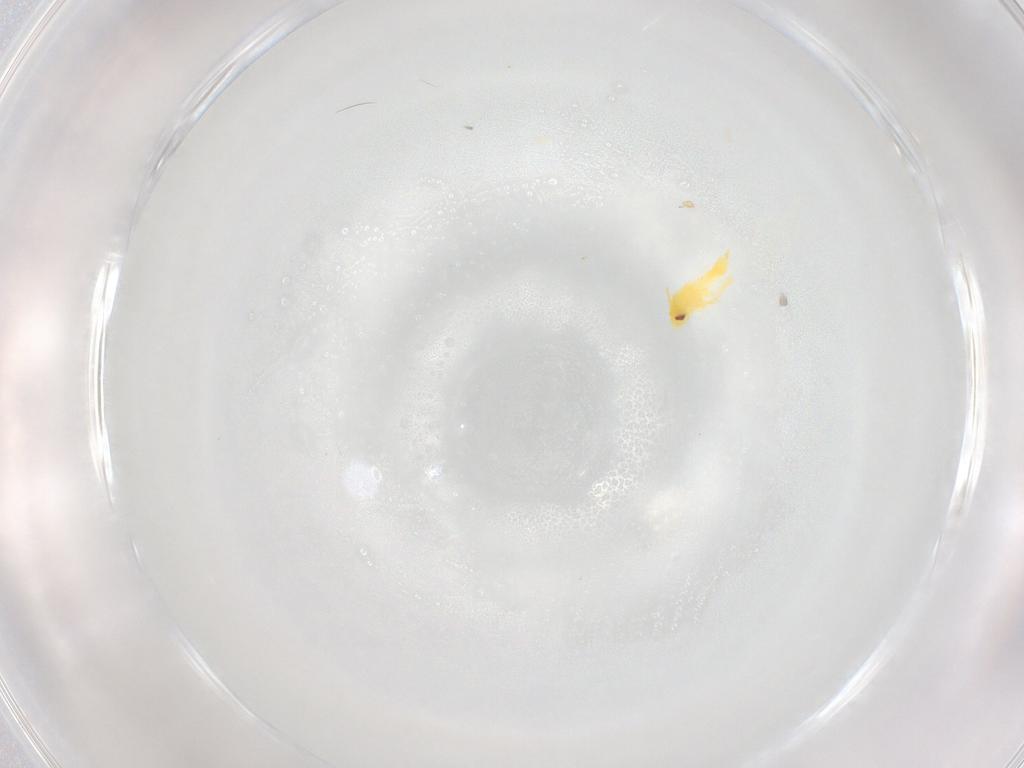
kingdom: Animalia
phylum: Arthropoda
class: Insecta
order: Hemiptera
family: Aleyrodidae
